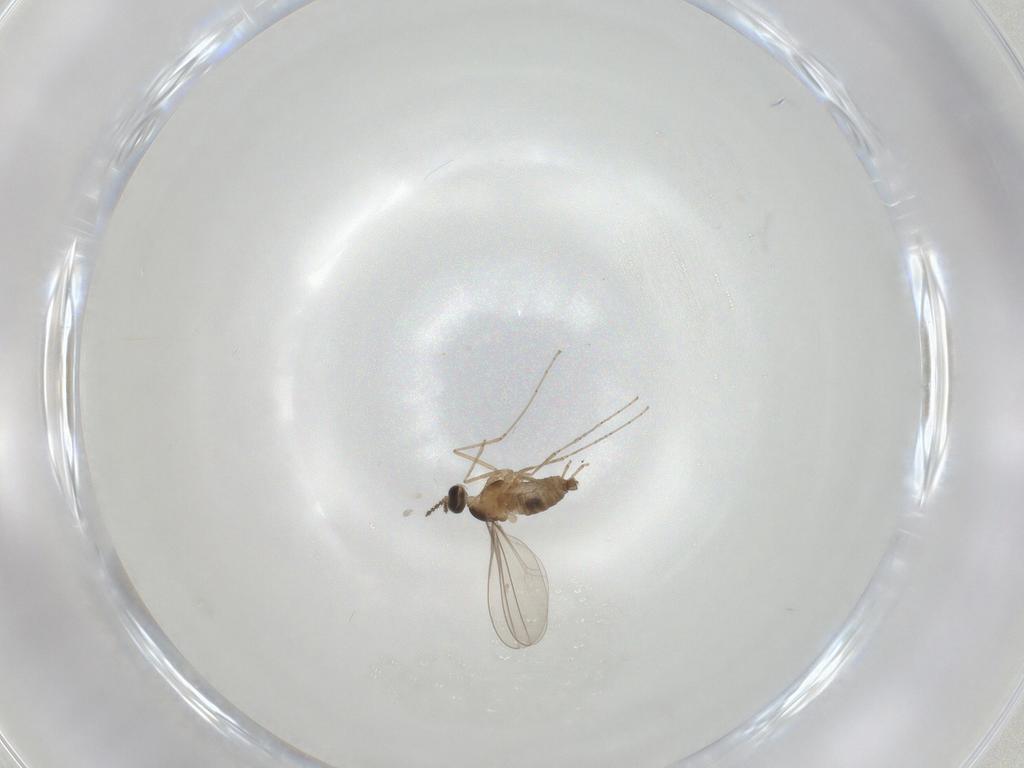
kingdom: Animalia
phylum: Arthropoda
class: Insecta
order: Diptera
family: Cecidomyiidae
